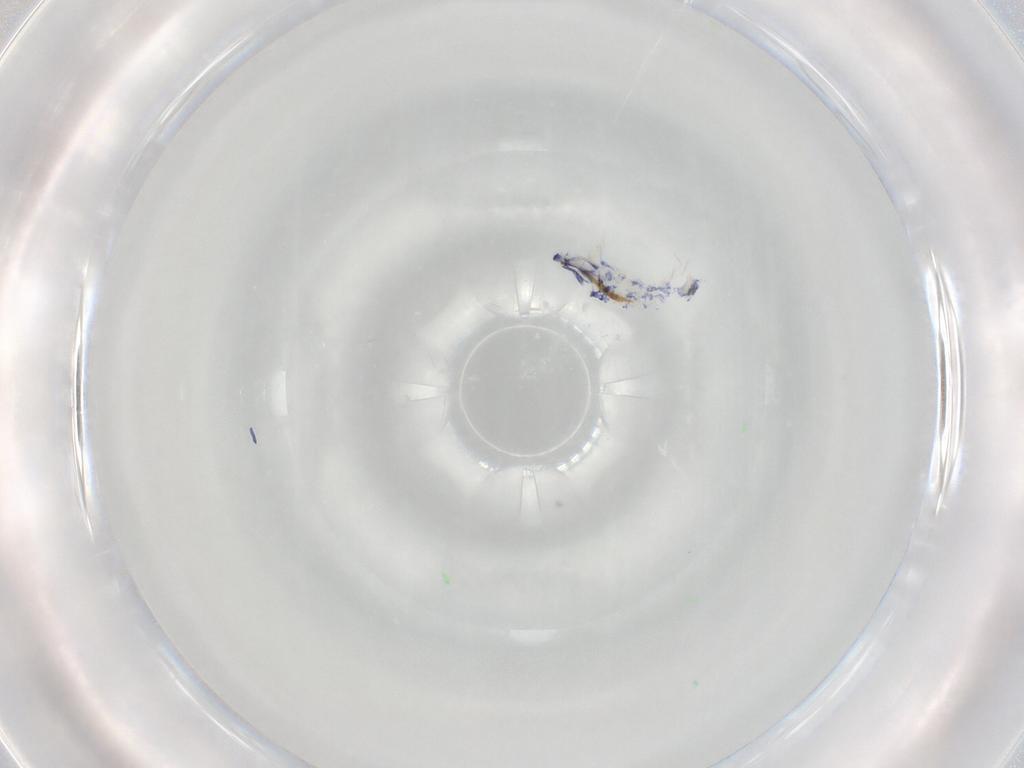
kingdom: Animalia
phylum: Arthropoda
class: Collembola
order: Entomobryomorpha
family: Entomobryidae
